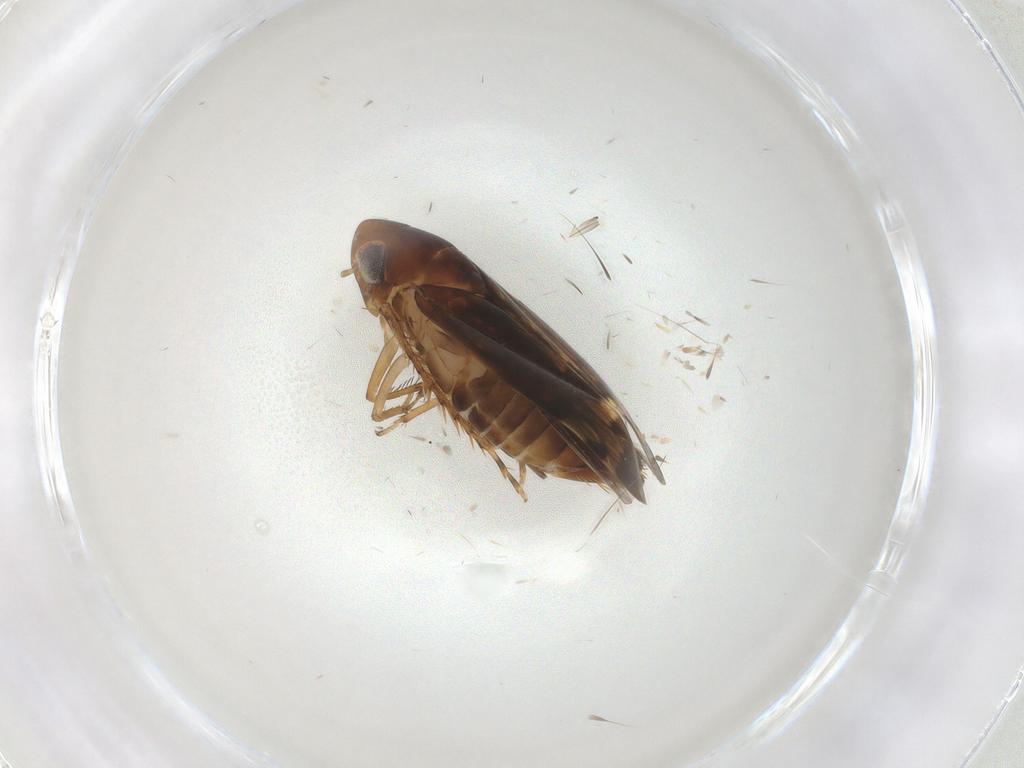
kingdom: Animalia
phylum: Arthropoda
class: Insecta
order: Hemiptera
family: Cicadellidae
